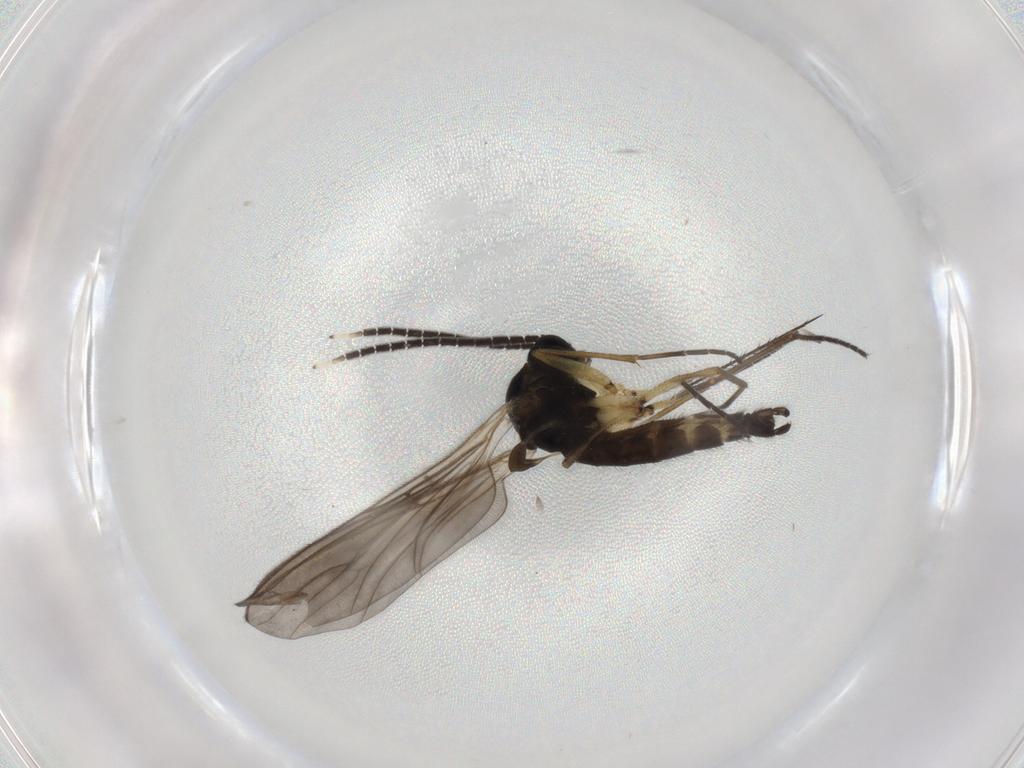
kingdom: Animalia
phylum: Arthropoda
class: Insecta
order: Diptera
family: Sciaridae
